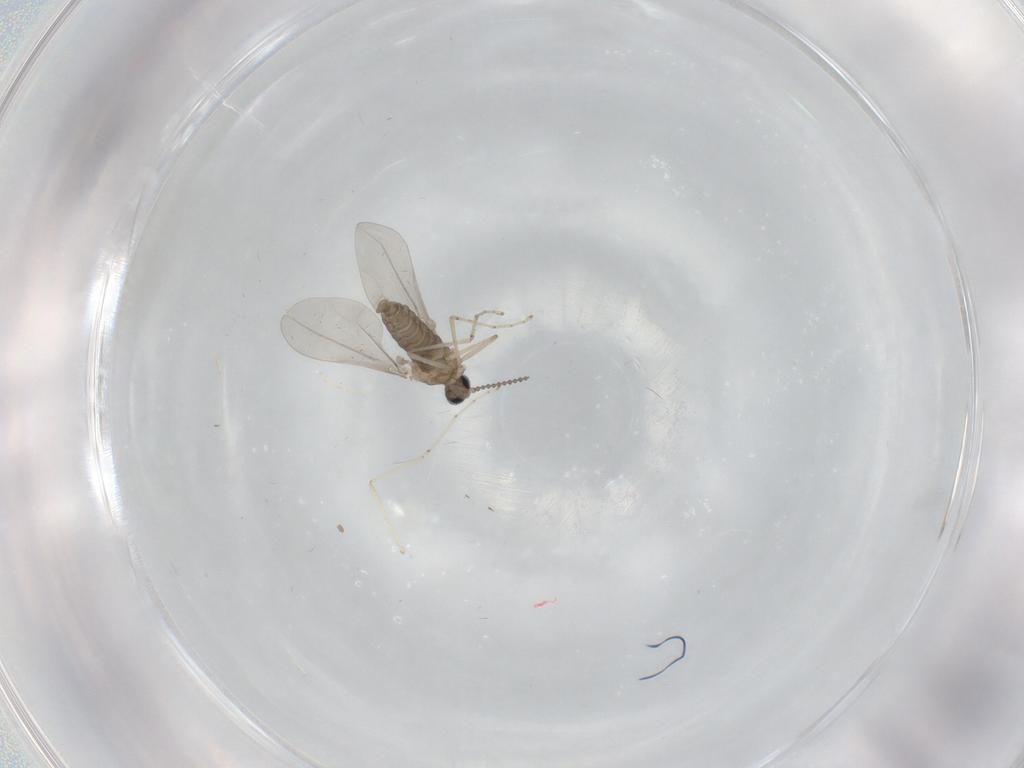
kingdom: Animalia
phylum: Arthropoda
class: Insecta
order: Diptera
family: Cecidomyiidae
